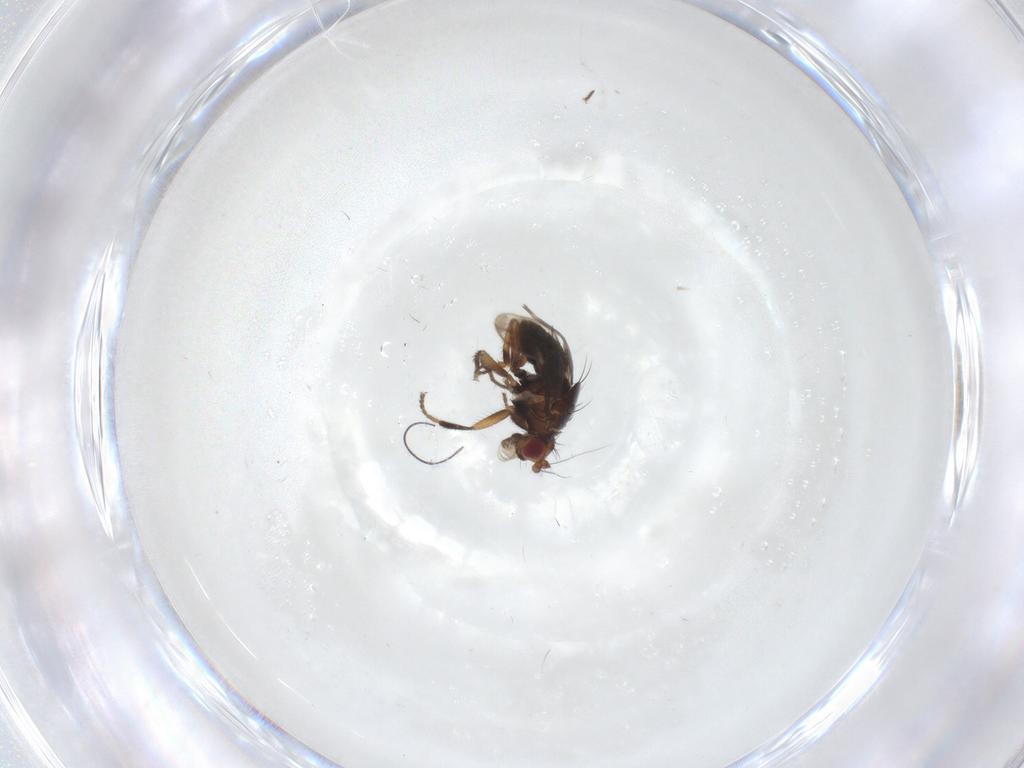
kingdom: Animalia
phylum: Arthropoda
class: Insecta
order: Diptera
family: Sphaeroceridae
